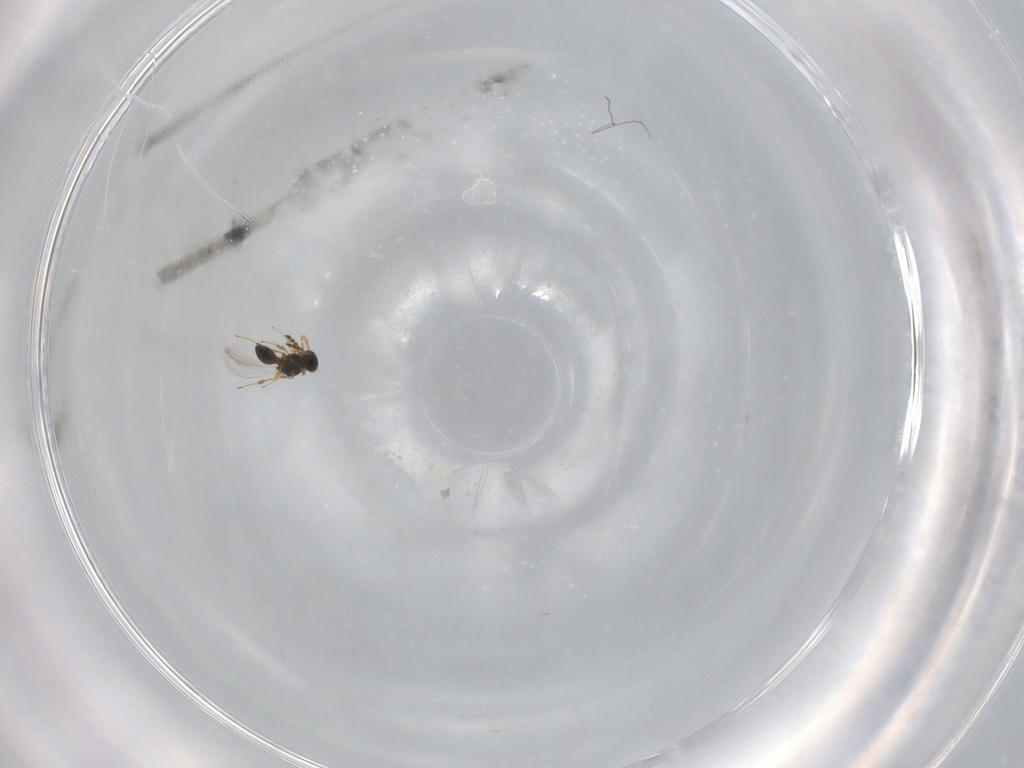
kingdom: Animalia
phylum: Arthropoda
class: Insecta
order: Hymenoptera
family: Platygastridae
